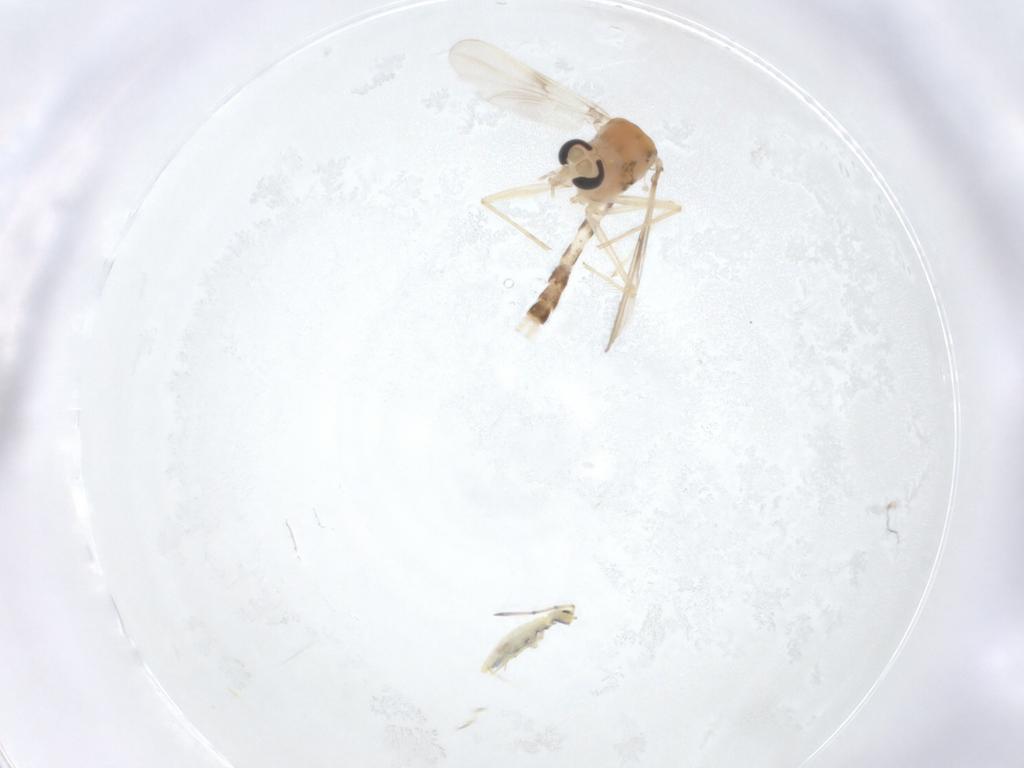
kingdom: Animalia
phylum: Arthropoda
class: Insecta
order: Diptera
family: Chironomidae
